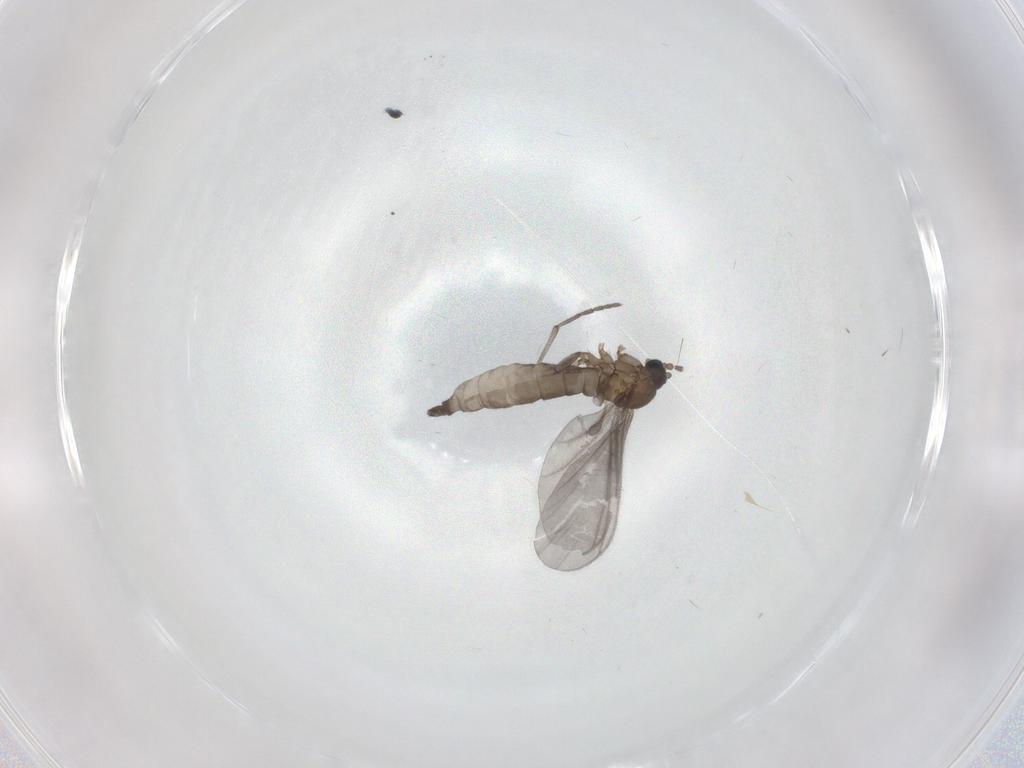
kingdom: Animalia
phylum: Arthropoda
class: Insecta
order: Diptera
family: Sciaridae
